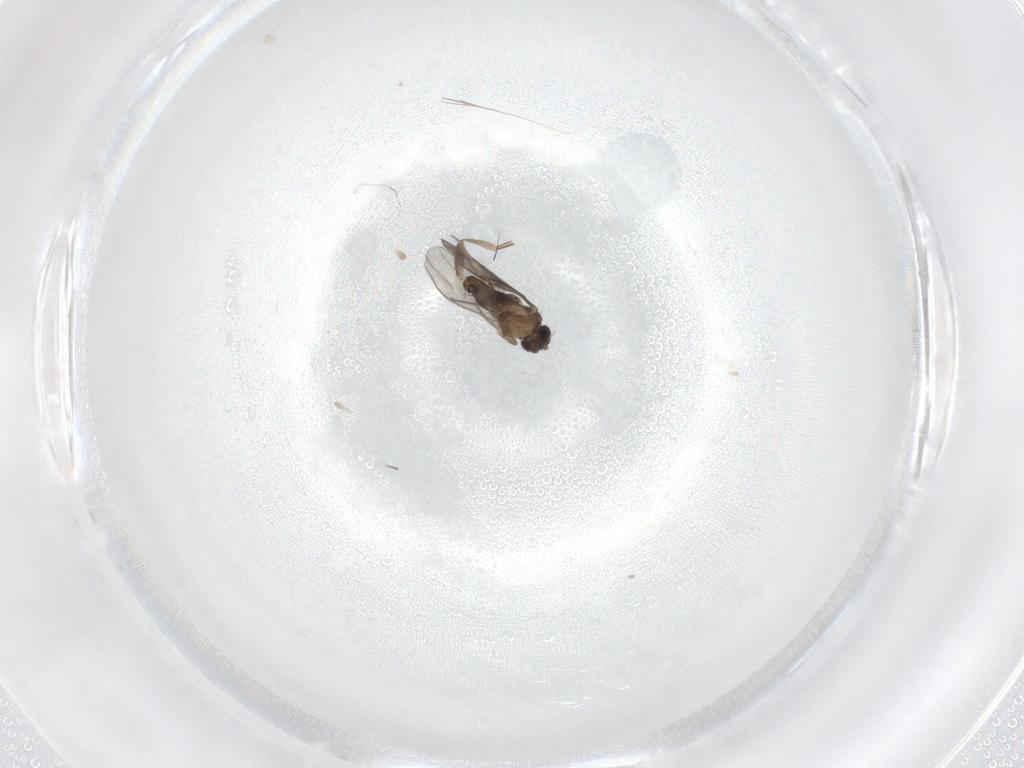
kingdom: Animalia
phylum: Arthropoda
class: Insecta
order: Diptera
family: Phoridae
